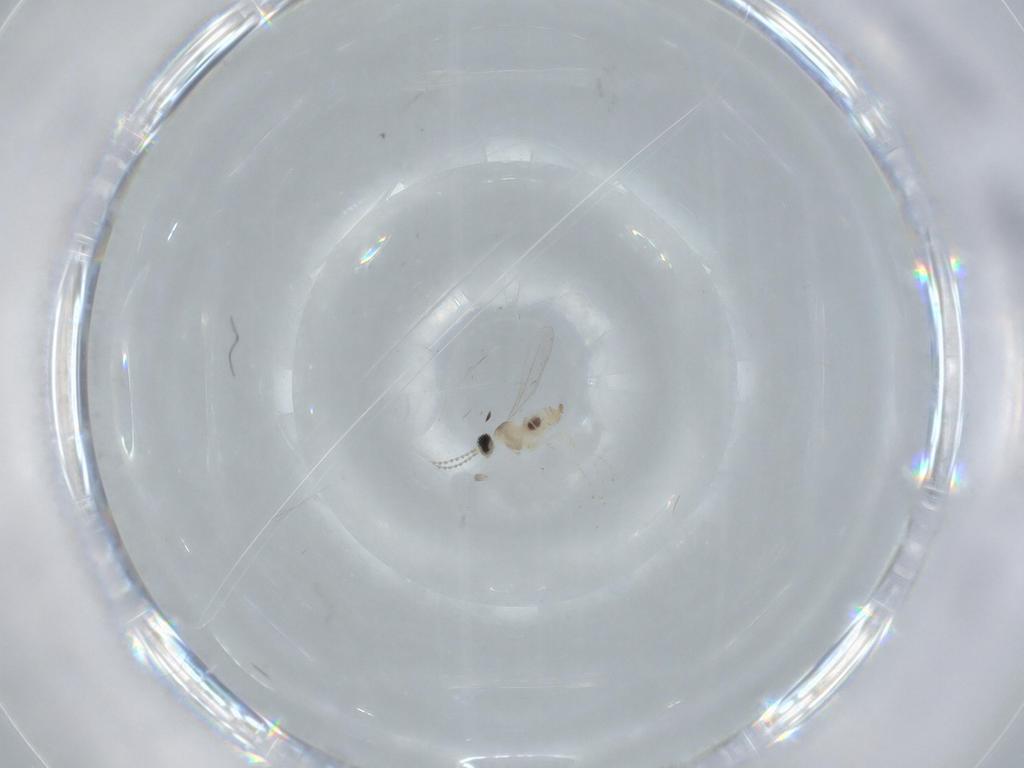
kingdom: Animalia
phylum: Arthropoda
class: Insecta
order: Diptera
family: Cecidomyiidae
